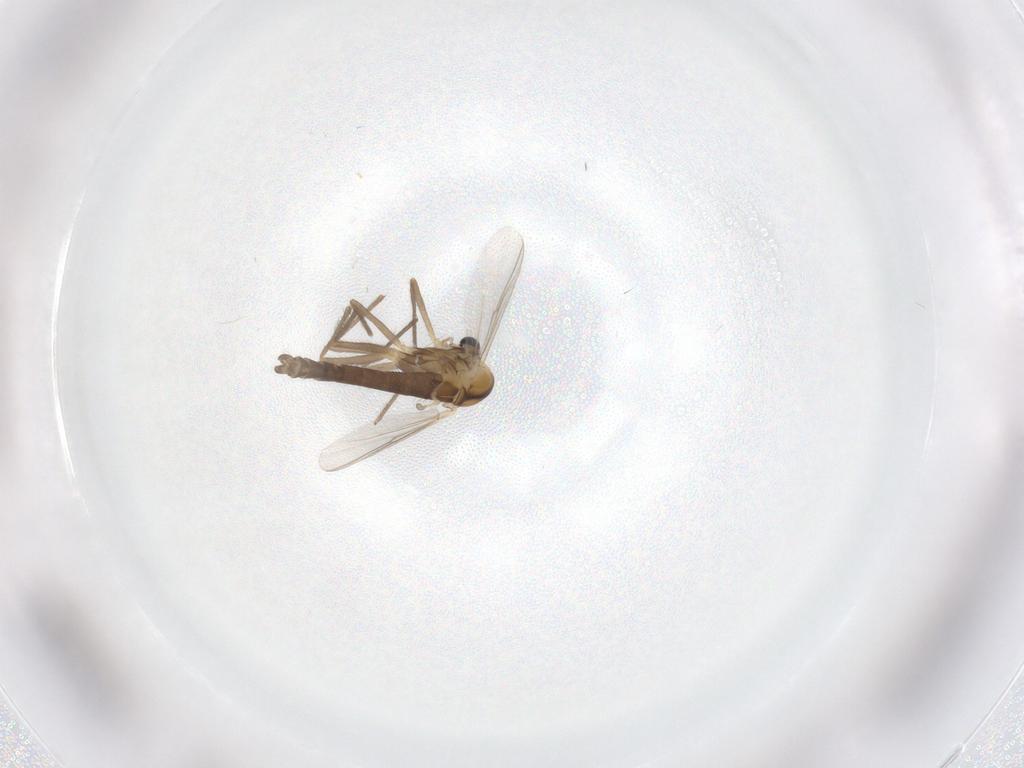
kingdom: Animalia
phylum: Arthropoda
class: Insecta
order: Diptera
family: Chironomidae
